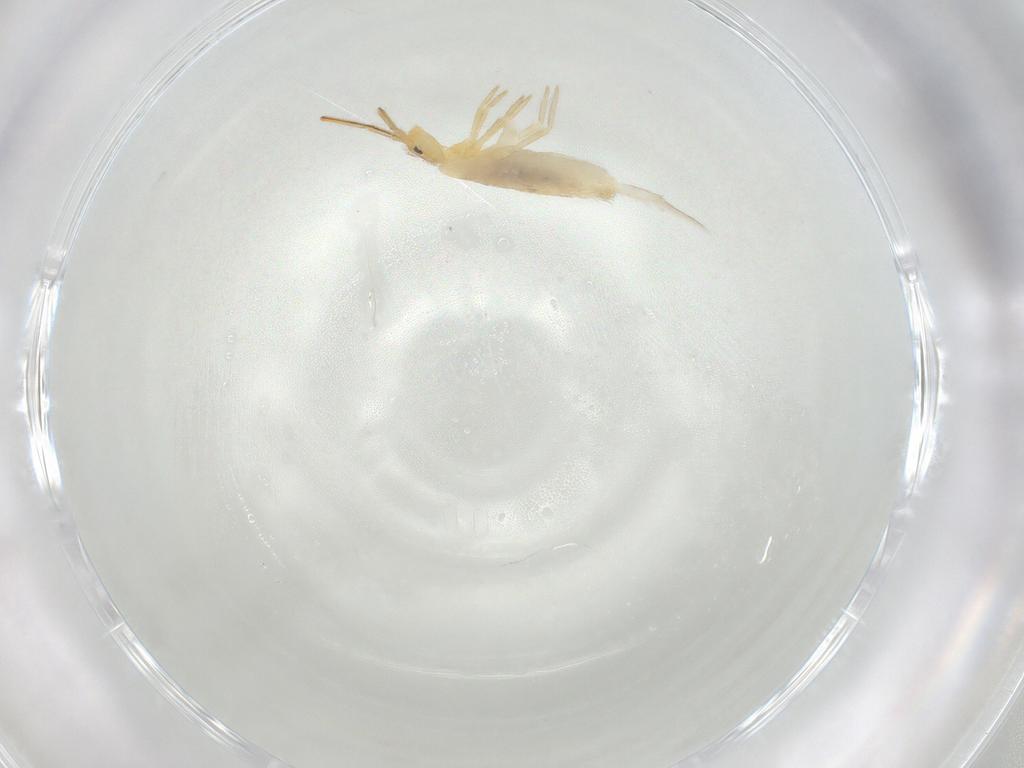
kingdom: Animalia
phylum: Arthropoda
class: Collembola
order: Entomobryomorpha
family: Entomobryidae
